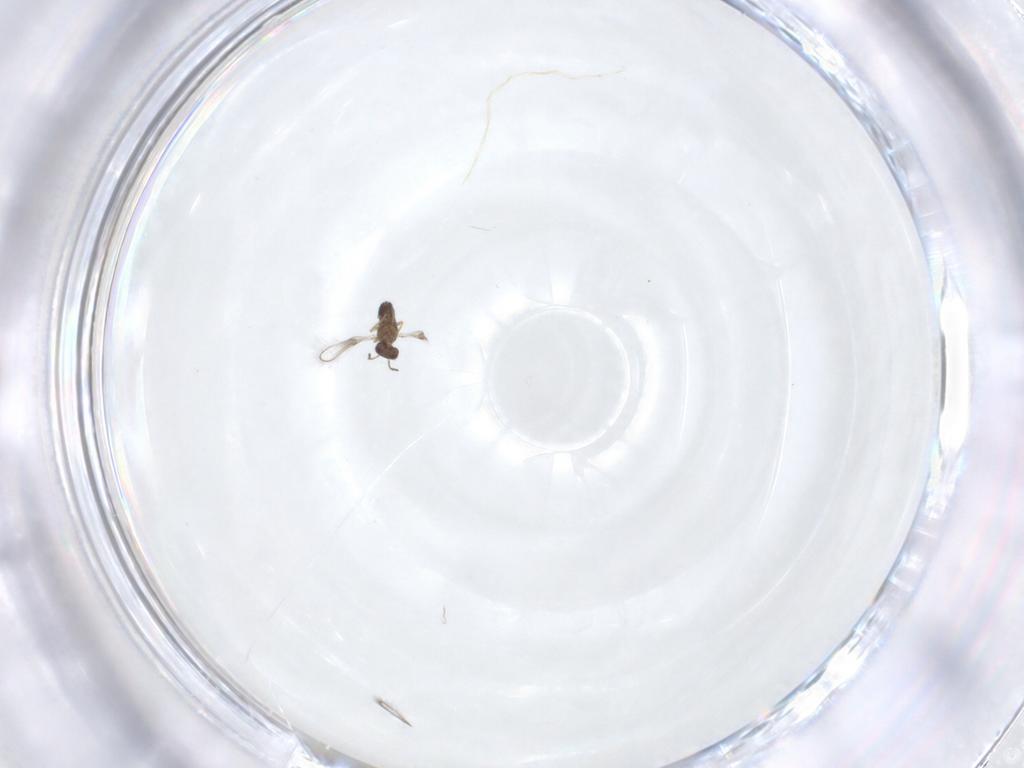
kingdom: Animalia
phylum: Arthropoda
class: Insecta
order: Hymenoptera
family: Mymaridae
